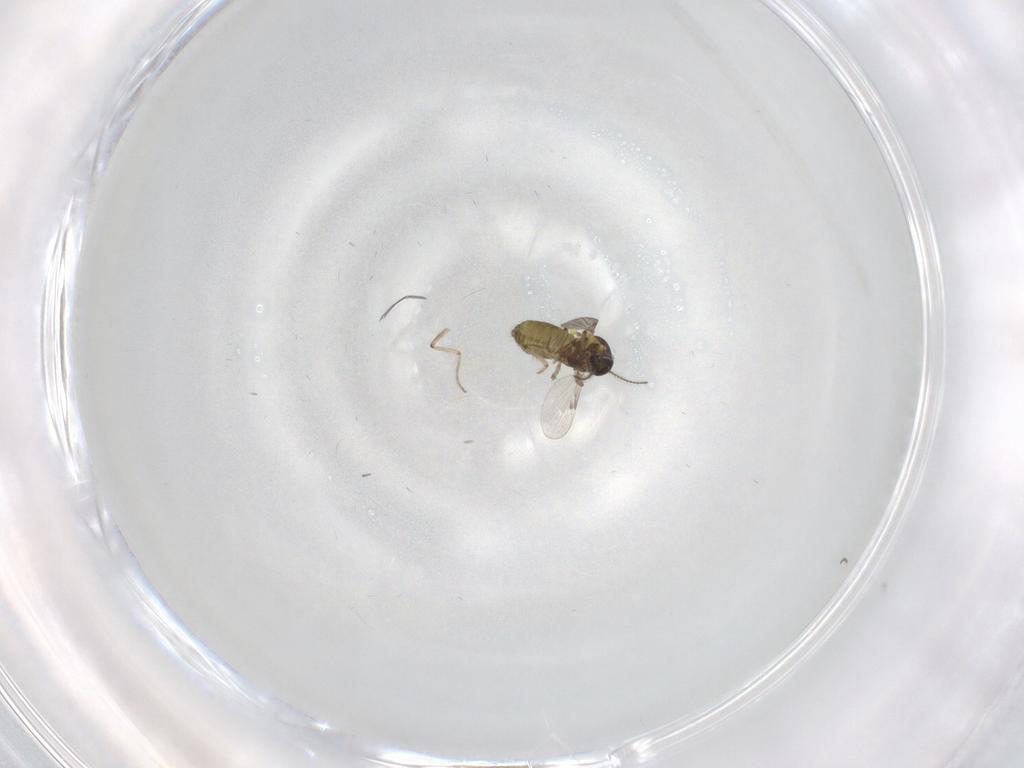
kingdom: Animalia
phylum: Arthropoda
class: Insecta
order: Diptera
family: Ceratopogonidae
